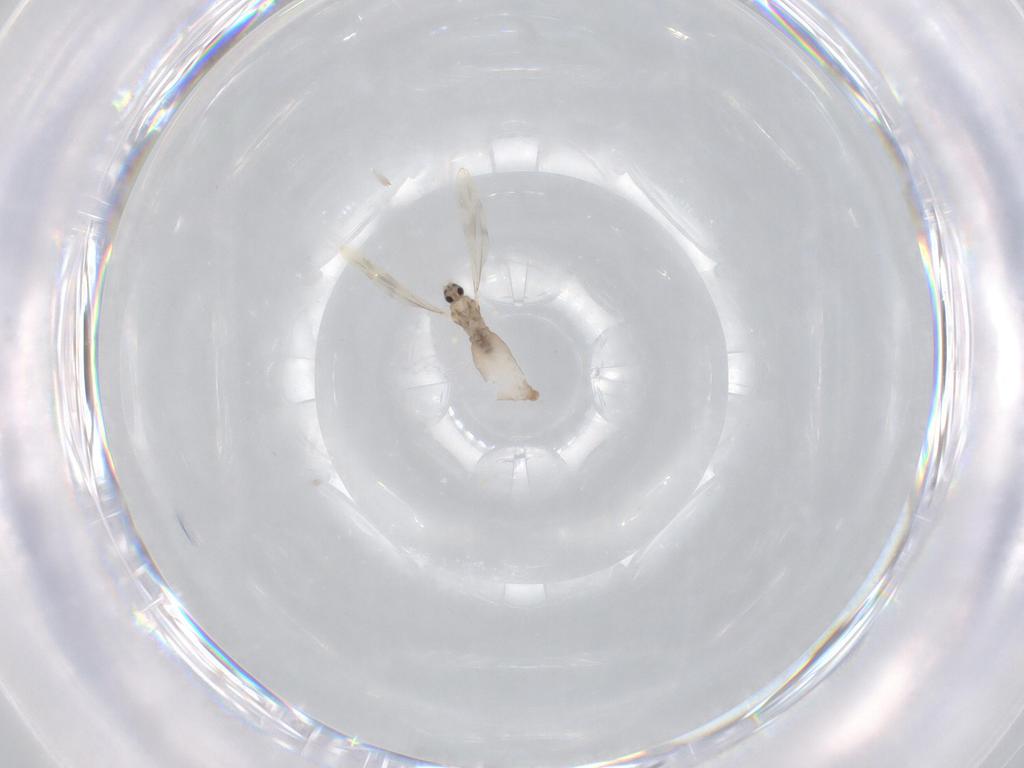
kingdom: Animalia
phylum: Arthropoda
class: Insecta
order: Diptera
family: Cecidomyiidae
